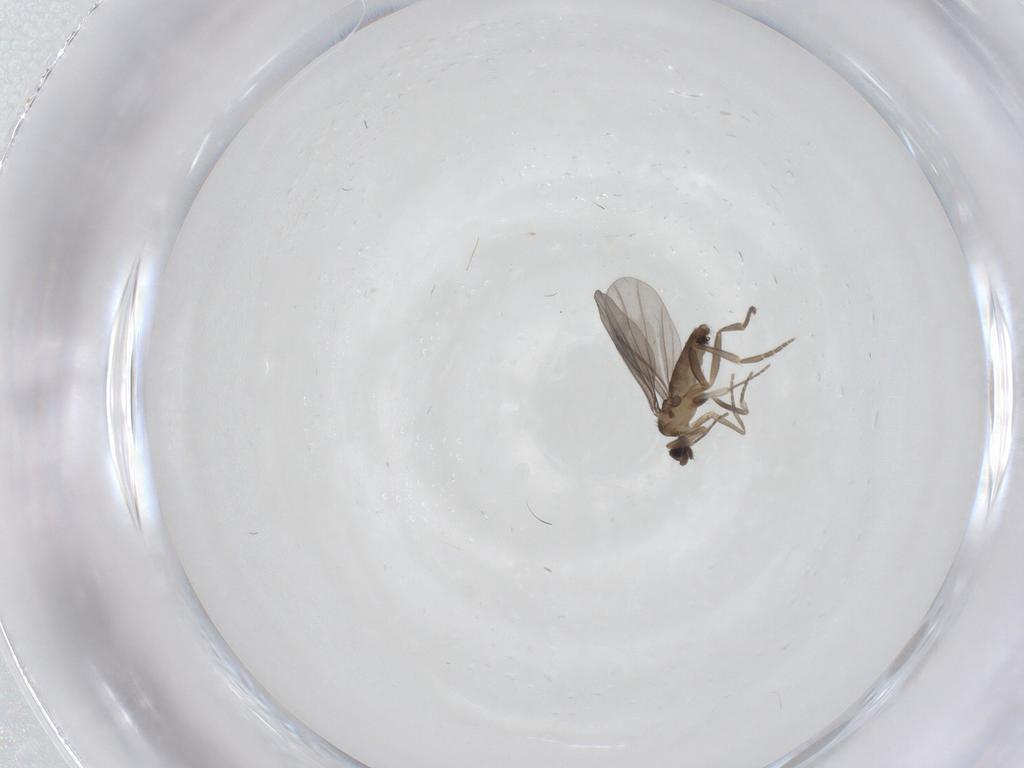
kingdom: Animalia
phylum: Arthropoda
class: Insecta
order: Diptera
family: Phoridae
